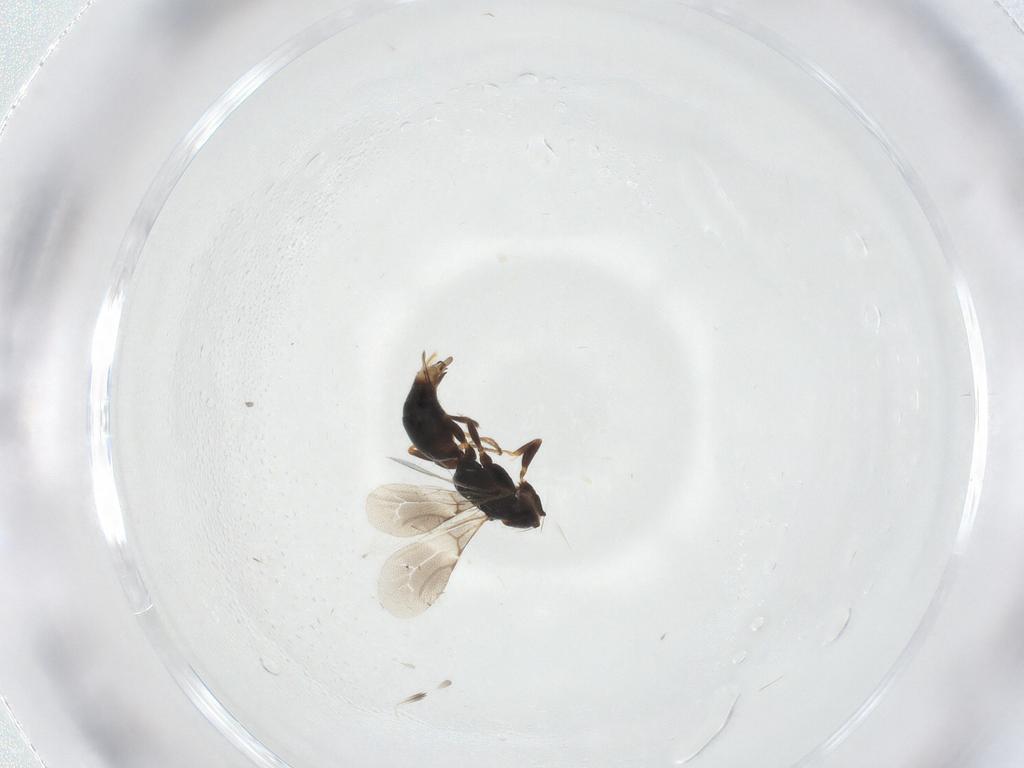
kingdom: Animalia
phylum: Arthropoda
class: Insecta
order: Hymenoptera
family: Bethylidae
